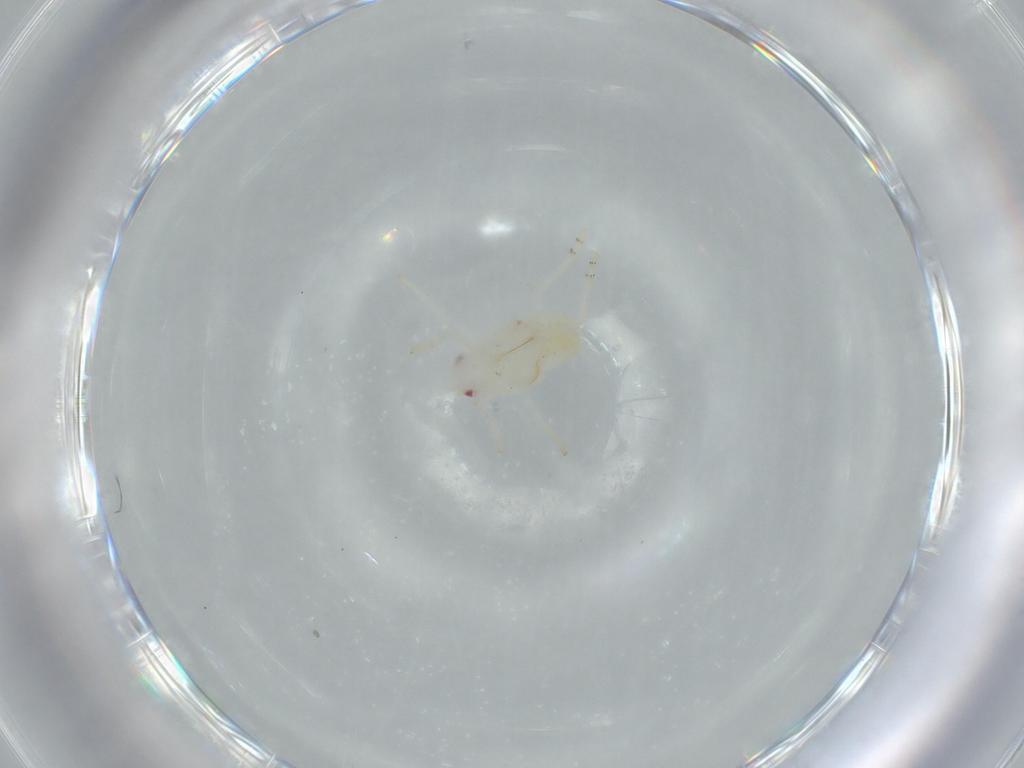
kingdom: Animalia
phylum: Arthropoda
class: Insecta
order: Hemiptera
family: Flatidae
